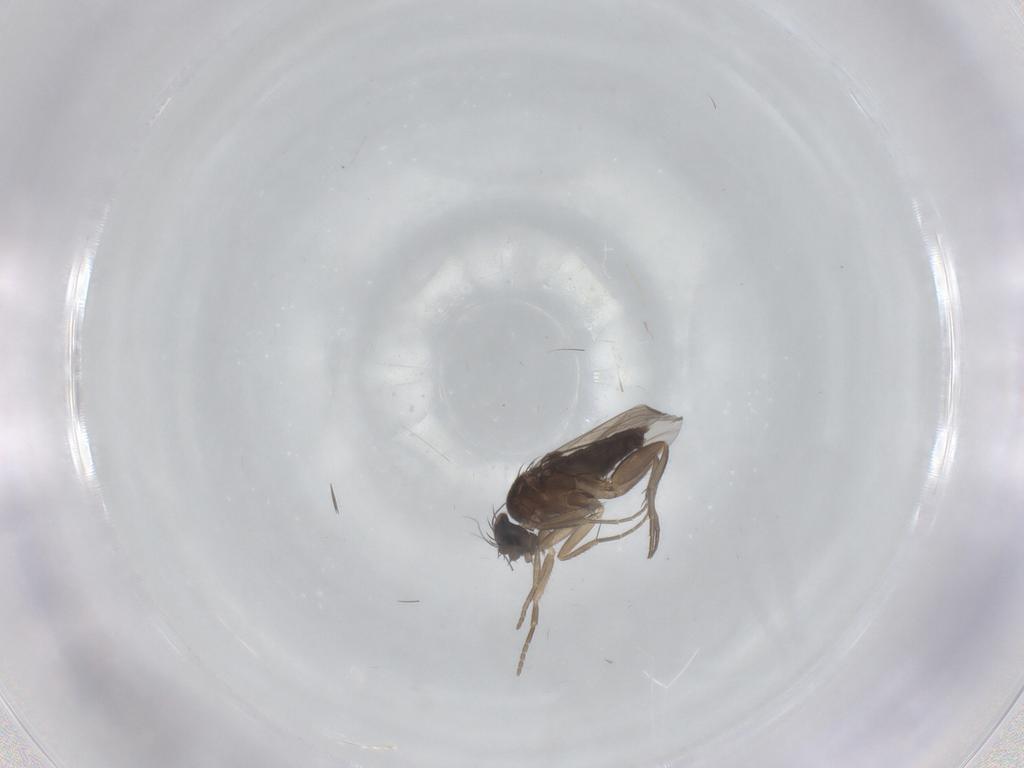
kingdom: Animalia
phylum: Arthropoda
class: Insecta
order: Diptera
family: Phoridae
